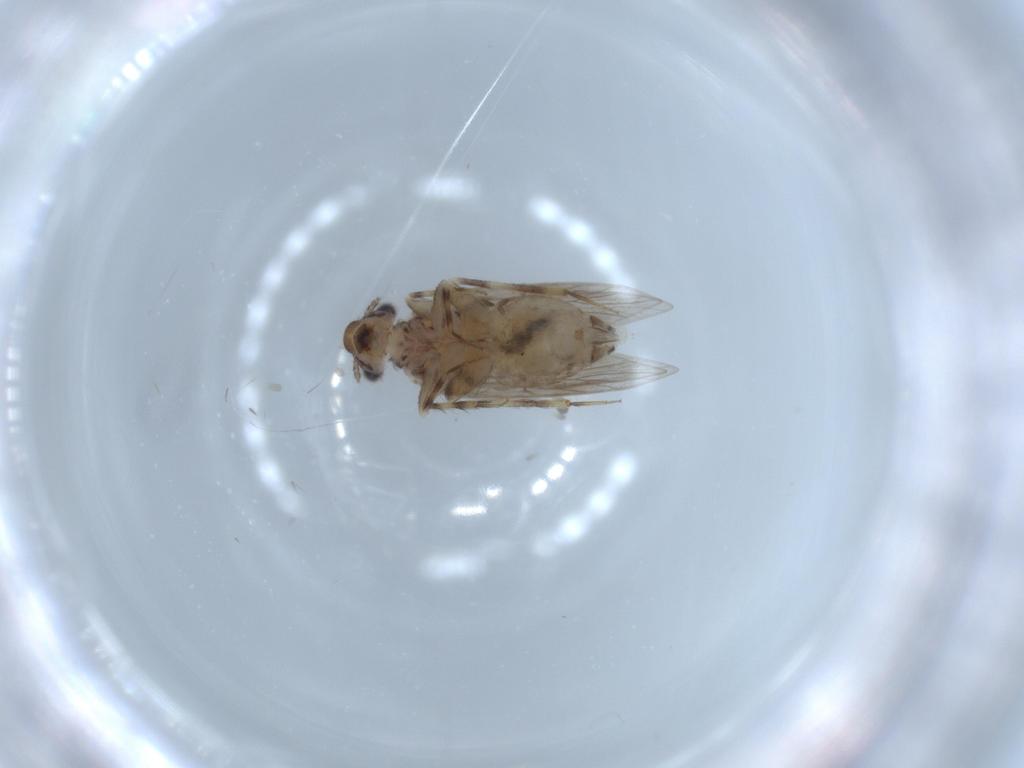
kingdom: Animalia
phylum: Arthropoda
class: Insecta
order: Psocodea
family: Lepidopsocidae
